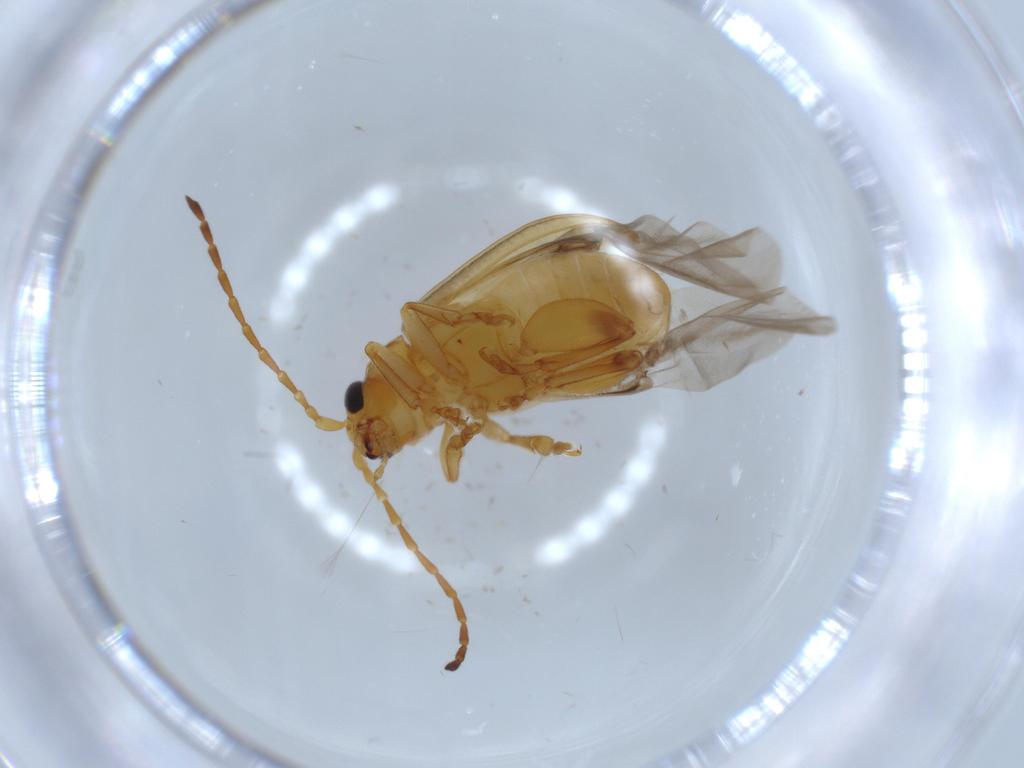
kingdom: Animalia
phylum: Arthropoda
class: Insecta
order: Coleoptera
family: Chrysomelidae
